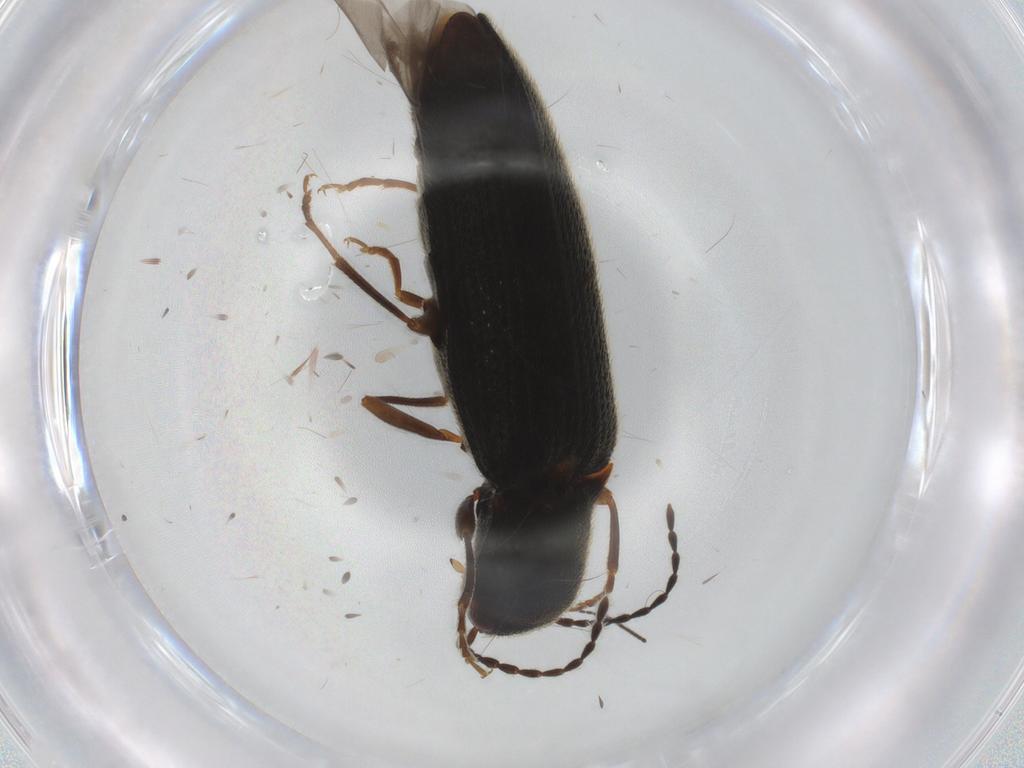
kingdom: Animalia
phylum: Arthropoda
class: Insecta
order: Coleoptera
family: Elateridae
